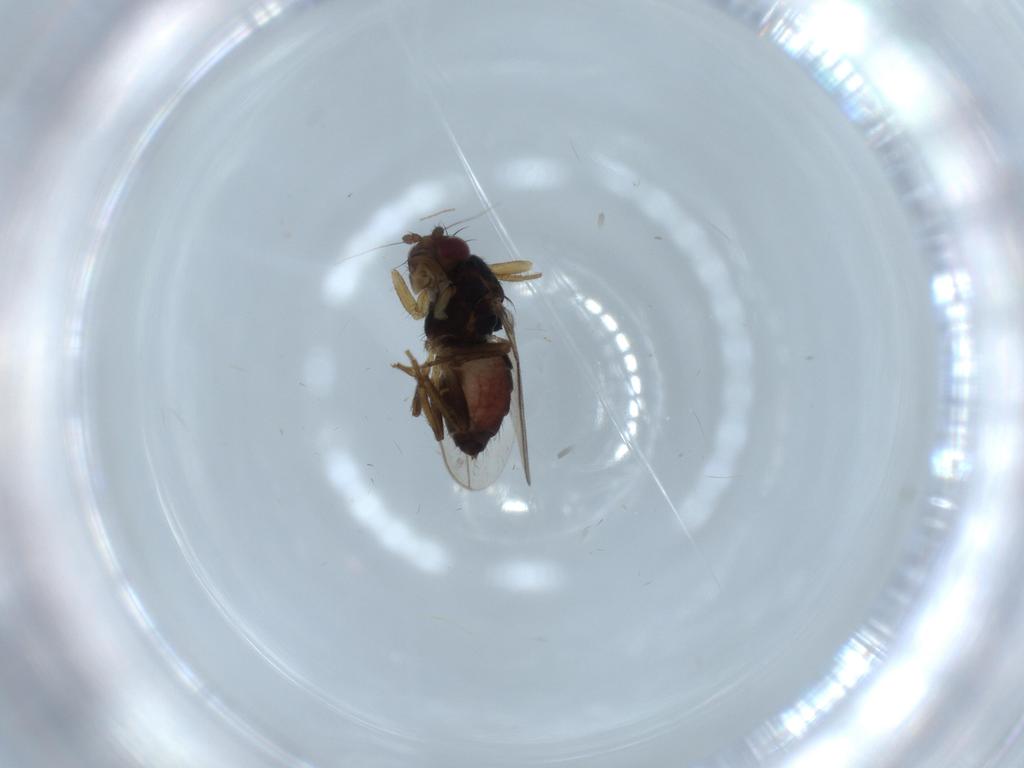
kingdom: Animalia
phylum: Arthropoda
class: Insecta
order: Diptera
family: Sphaeroceridae
